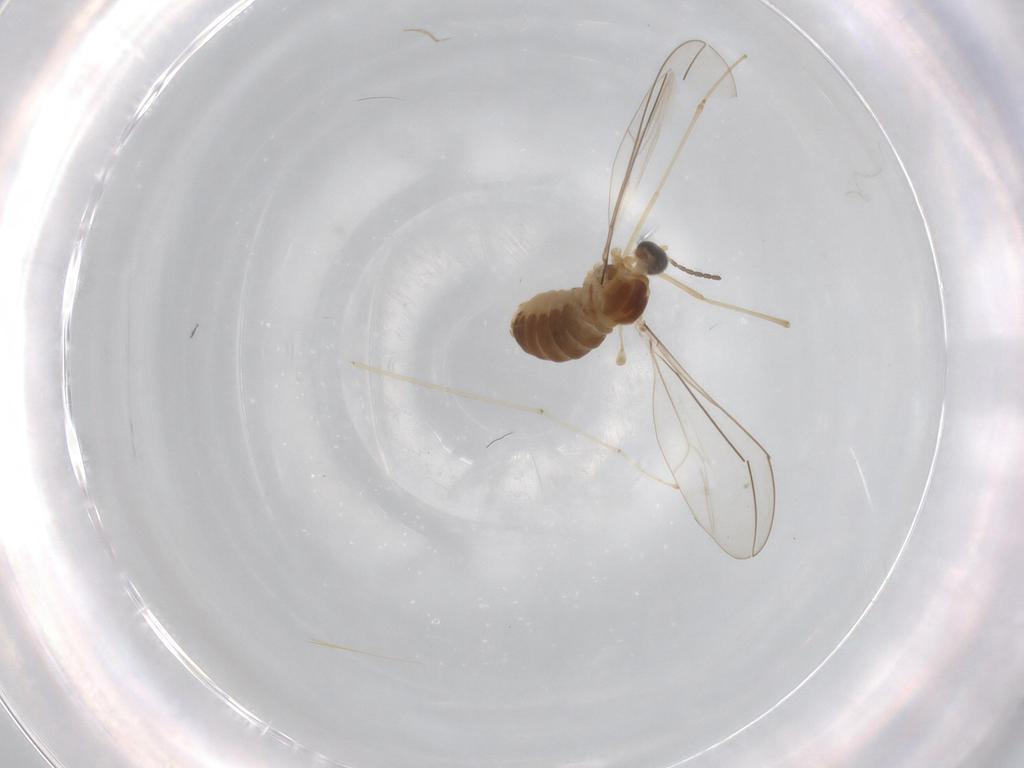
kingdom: Animalia
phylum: Arthropoda
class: Insecta
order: Diptera
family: Cecidomyiidae
